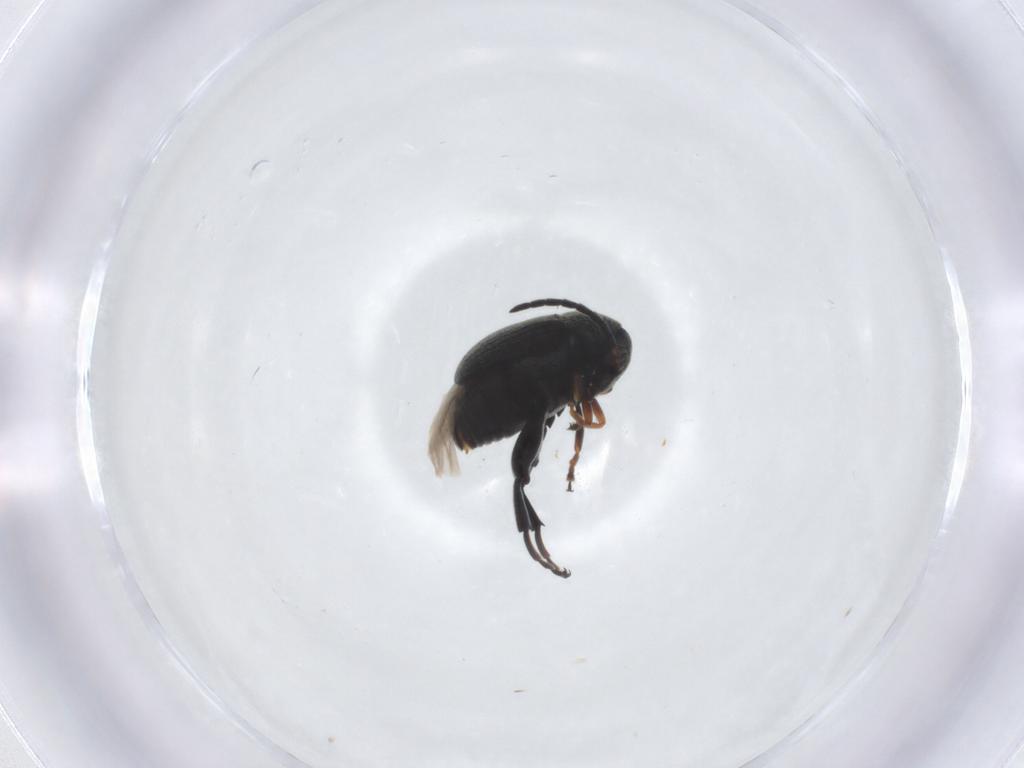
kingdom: Animalia
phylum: Arthropoda
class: Insecta
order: Coleoptera
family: Chrysomelidae
